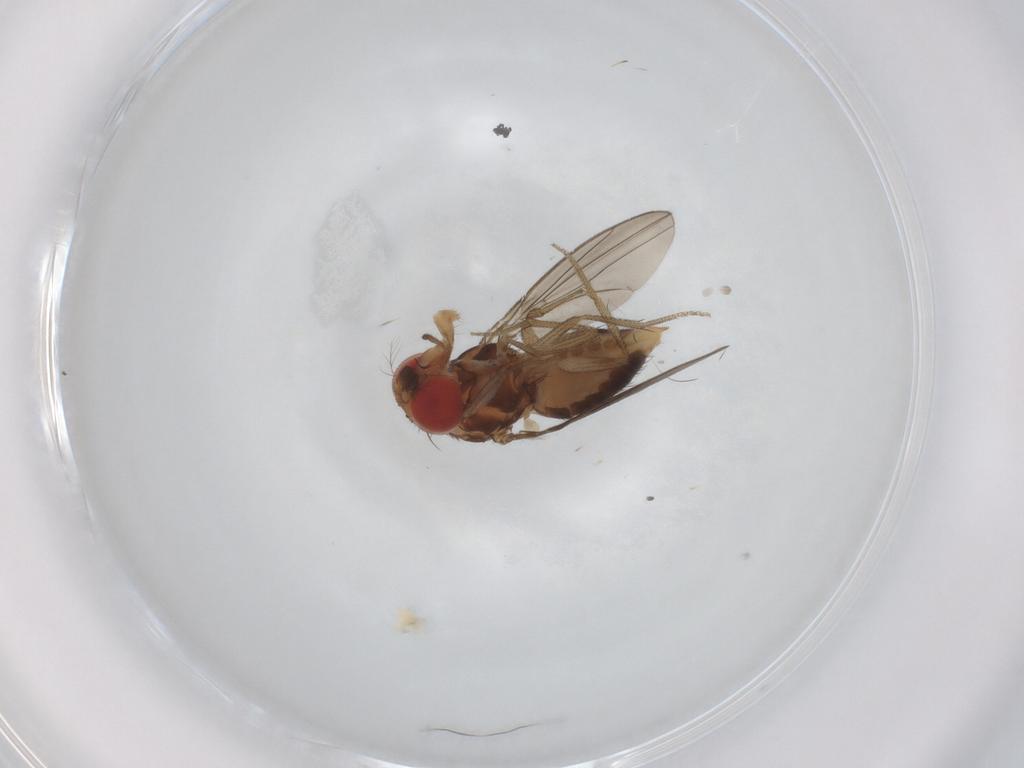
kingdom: Animalia
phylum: Arthropoda
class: Insecta
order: Diptera
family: Drosophilidae
